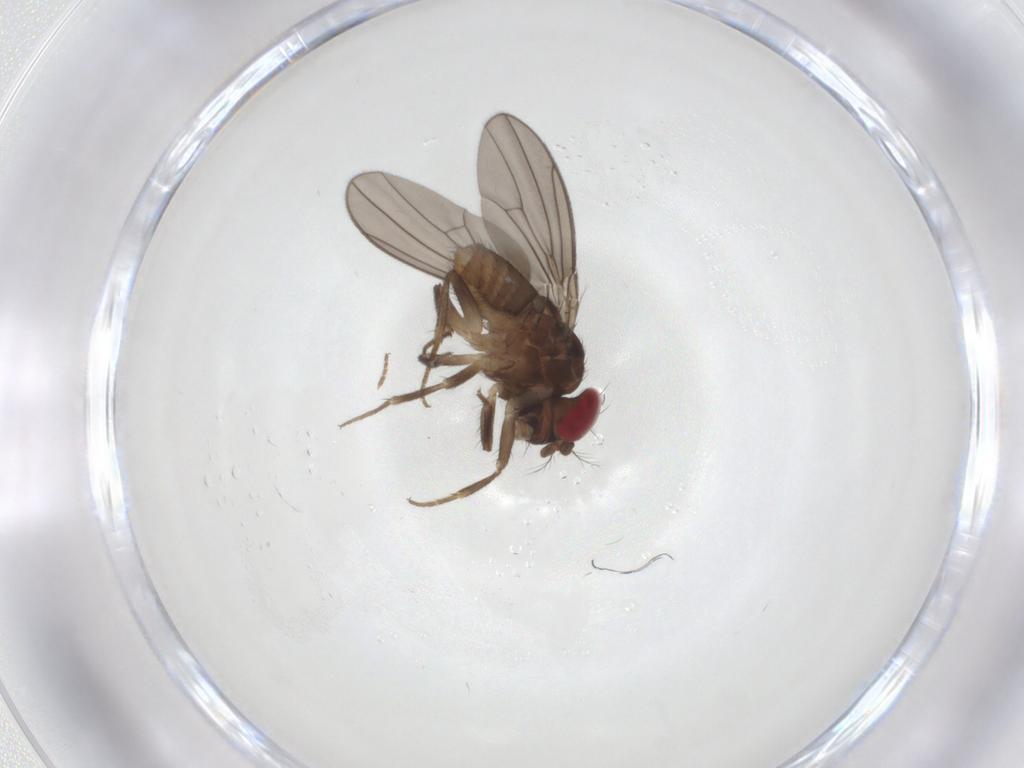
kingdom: Animalia
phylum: Arthropoda
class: Insecta
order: Diptera
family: Drosophilidae
